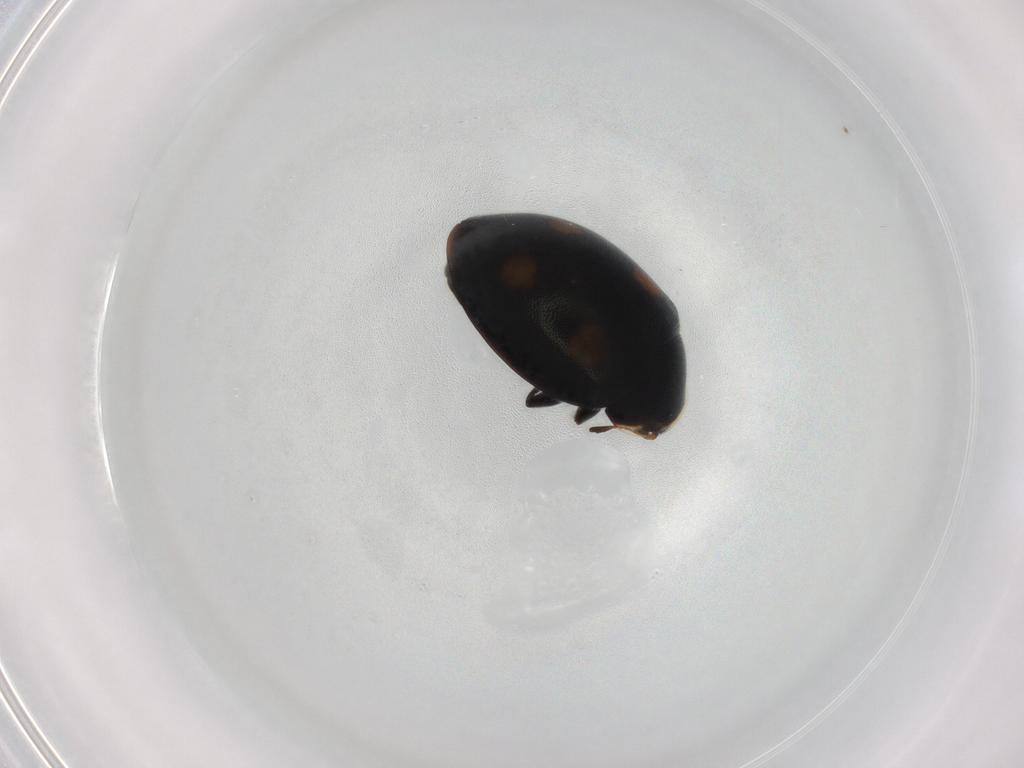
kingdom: Animalia
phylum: Arthropoda
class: Insecta
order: Coleoptera
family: Coccinellidae
